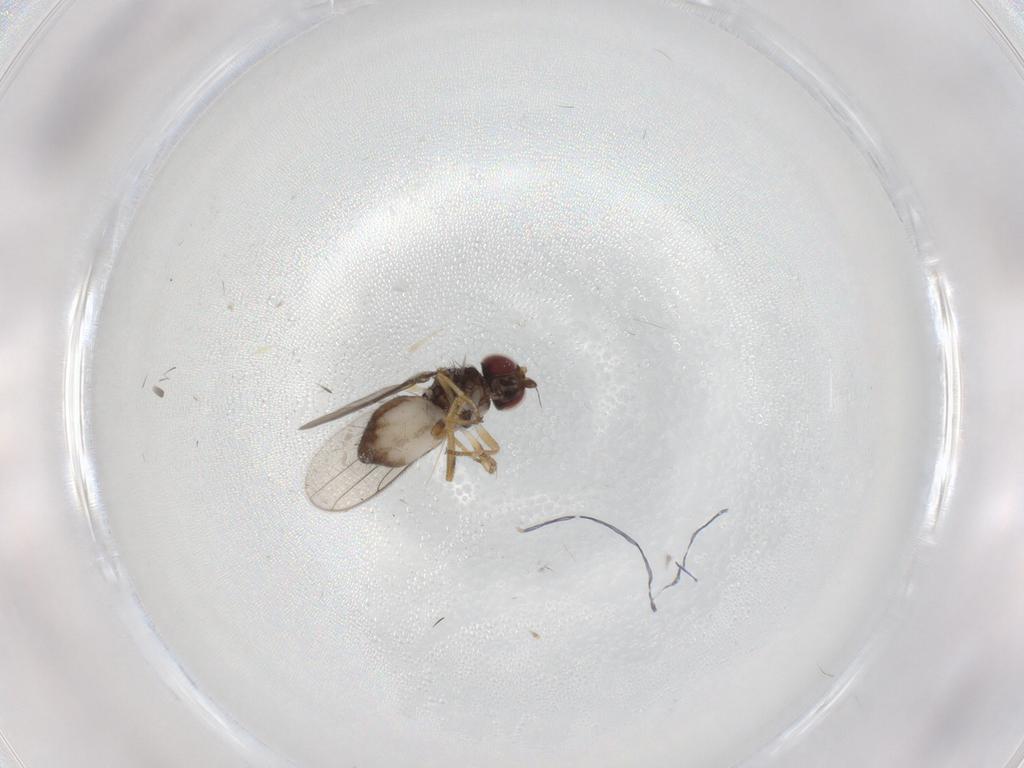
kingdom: Animalia
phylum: Arthropoda
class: Insecta
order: Diptera
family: Chloropidae
